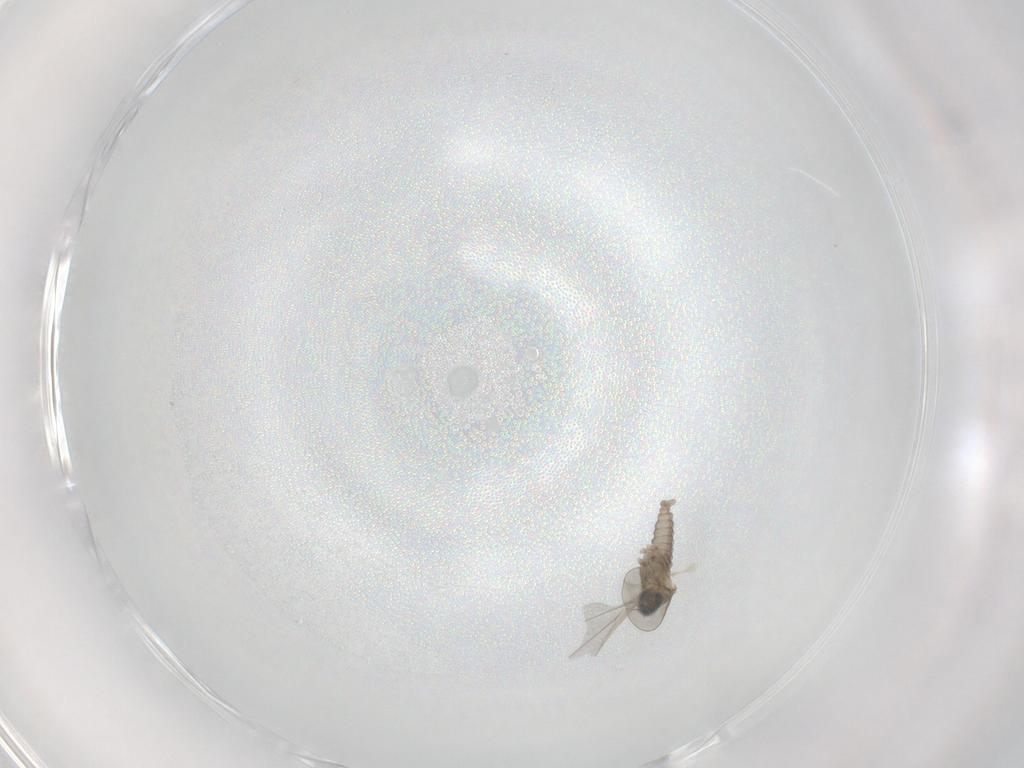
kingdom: Animalia
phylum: Arthropoda
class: Insecta
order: Diptera
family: Cecidomyiidae
